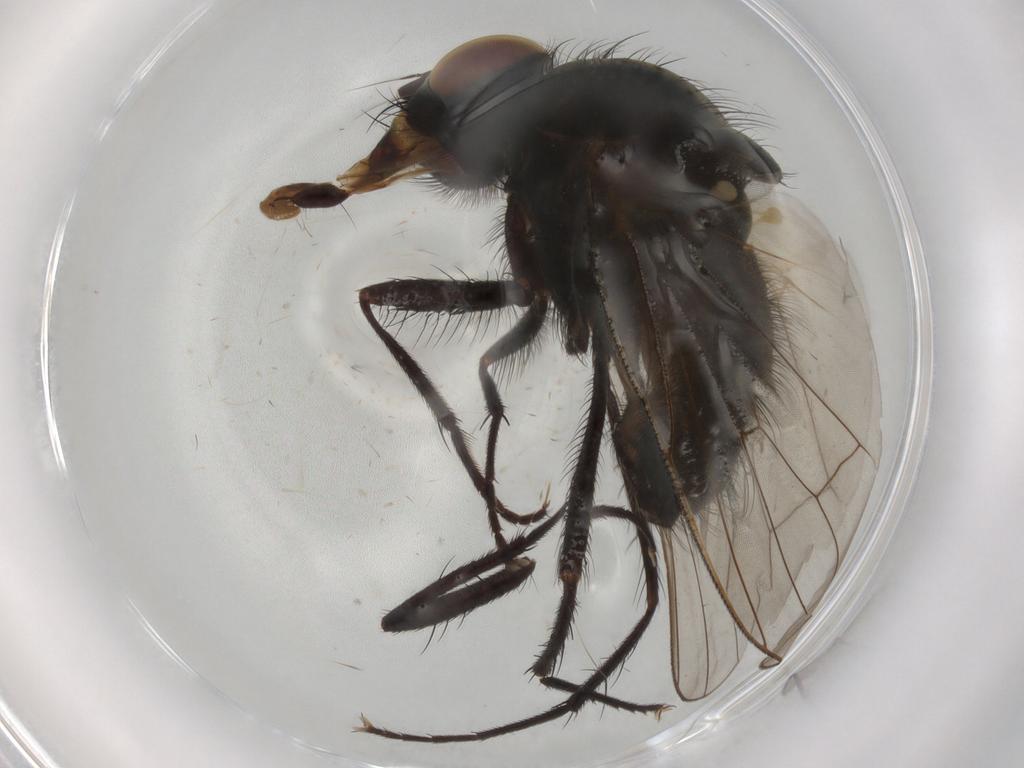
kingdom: Animalia
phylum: Arthropoda
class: Insecta
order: Diptera
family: Anthomyiidae
